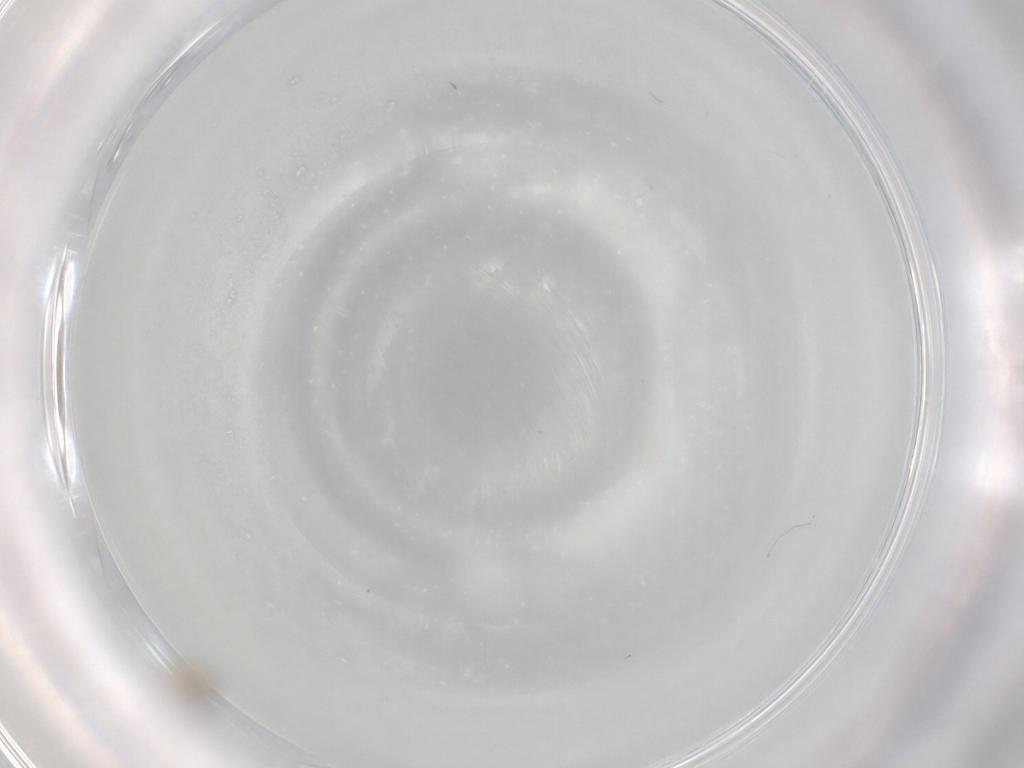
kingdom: Animalia
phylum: Arthropoda
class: Insecta
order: Diptera
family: Cecidomyiidae
